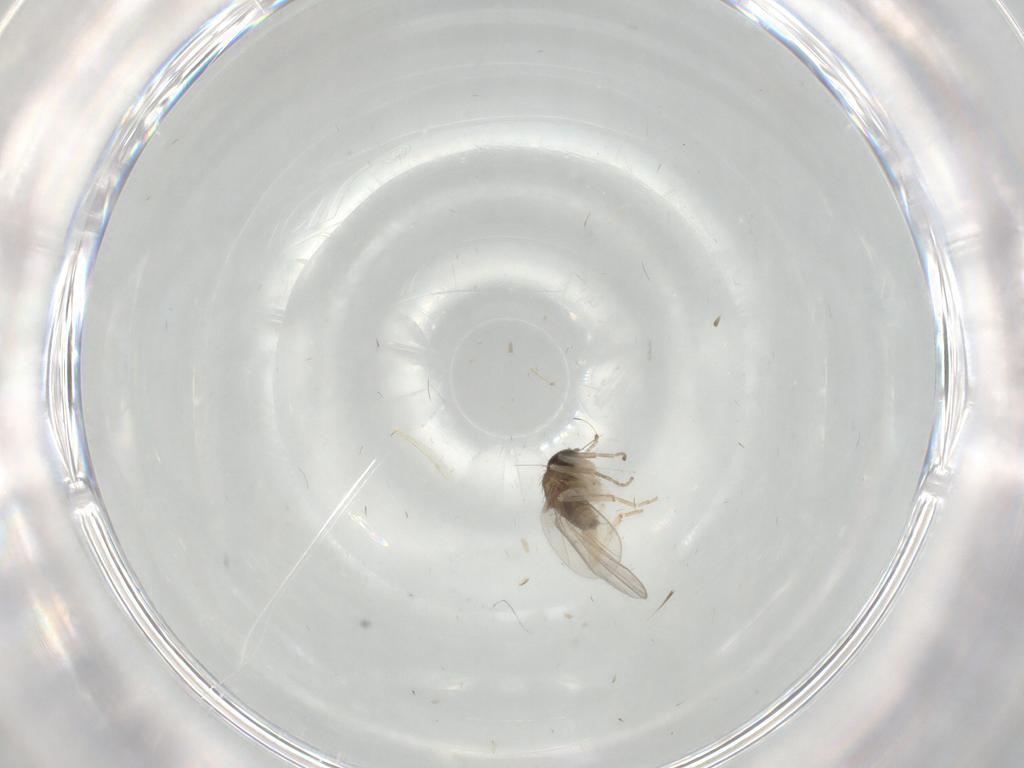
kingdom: Animalia
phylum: Arthropoda
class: Insecta
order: Diptera
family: Hybotidae
